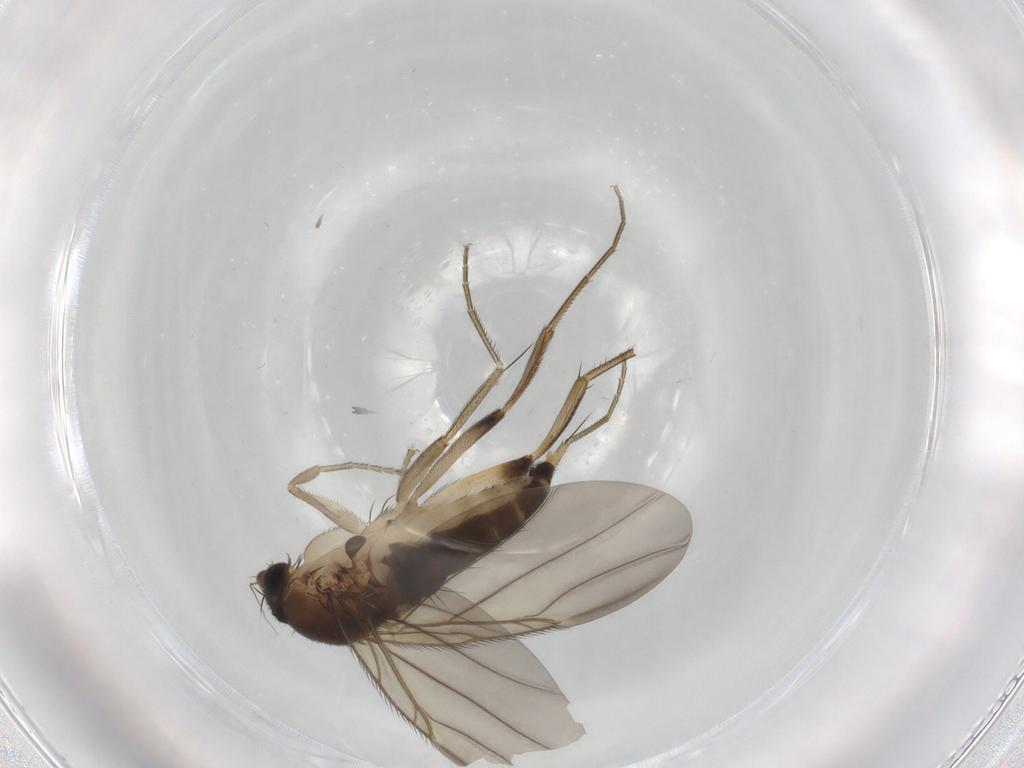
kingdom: Animalia
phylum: Arthropoda
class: Insecta
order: Diptera
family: Phoridae
